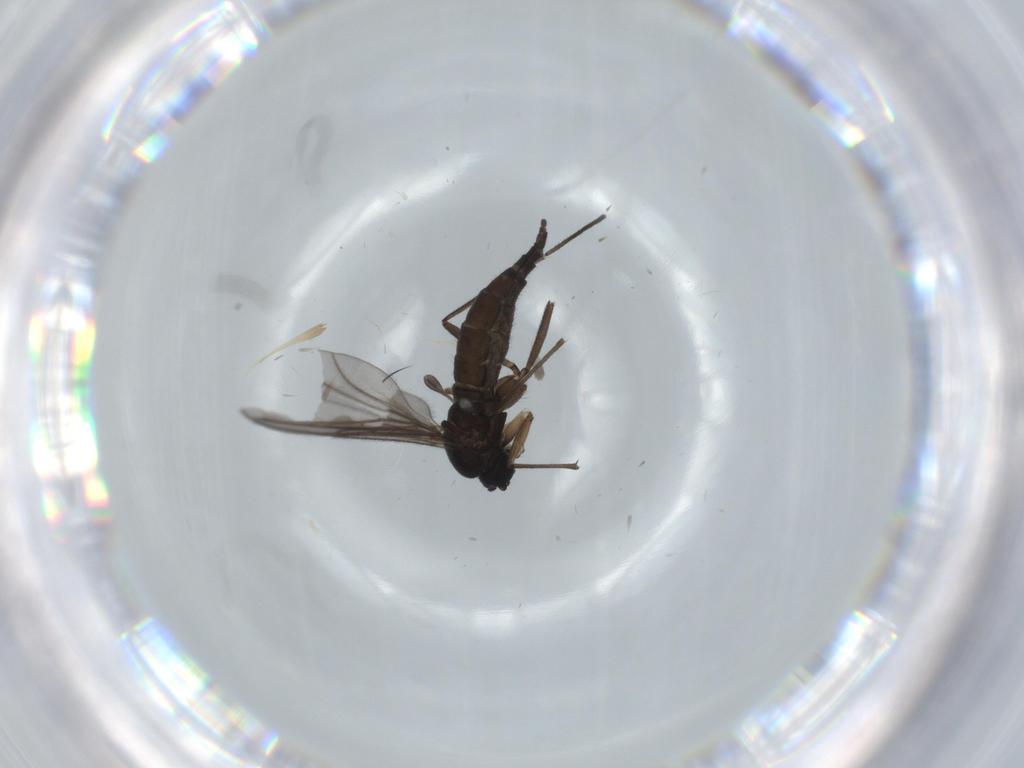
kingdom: Animalia
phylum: Arthropoda
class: Insecta
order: Diptera
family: Sciaridae
